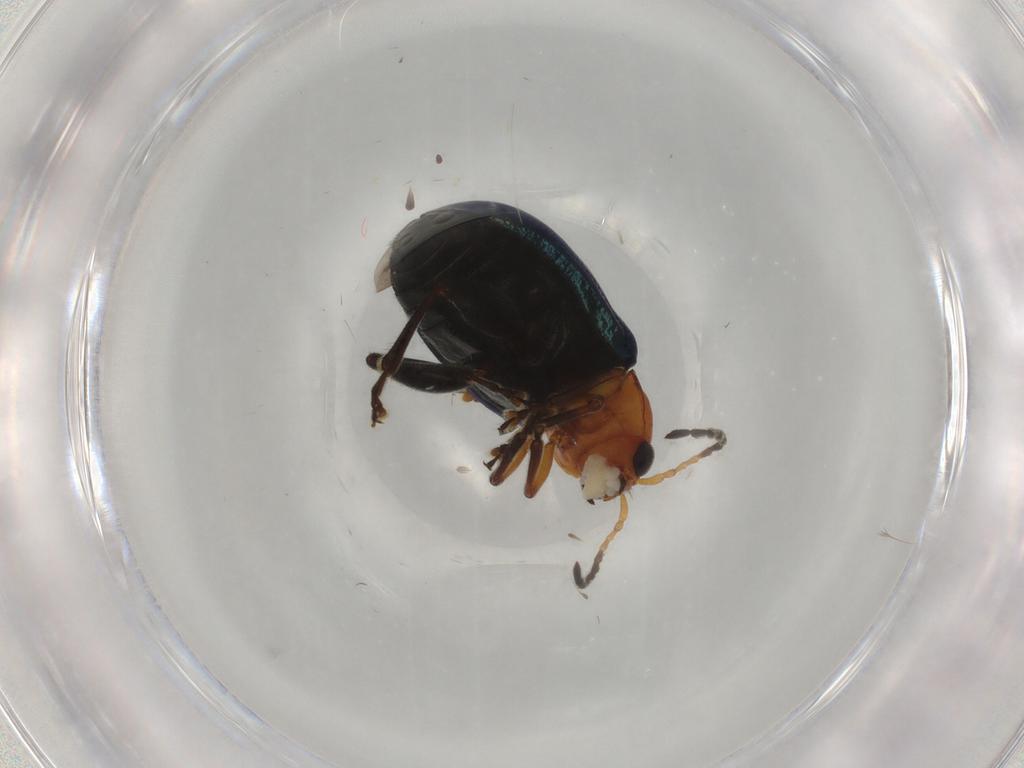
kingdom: Animalia
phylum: Arthropoda
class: Insecta
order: Coleoptera
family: Chrysomelidae
